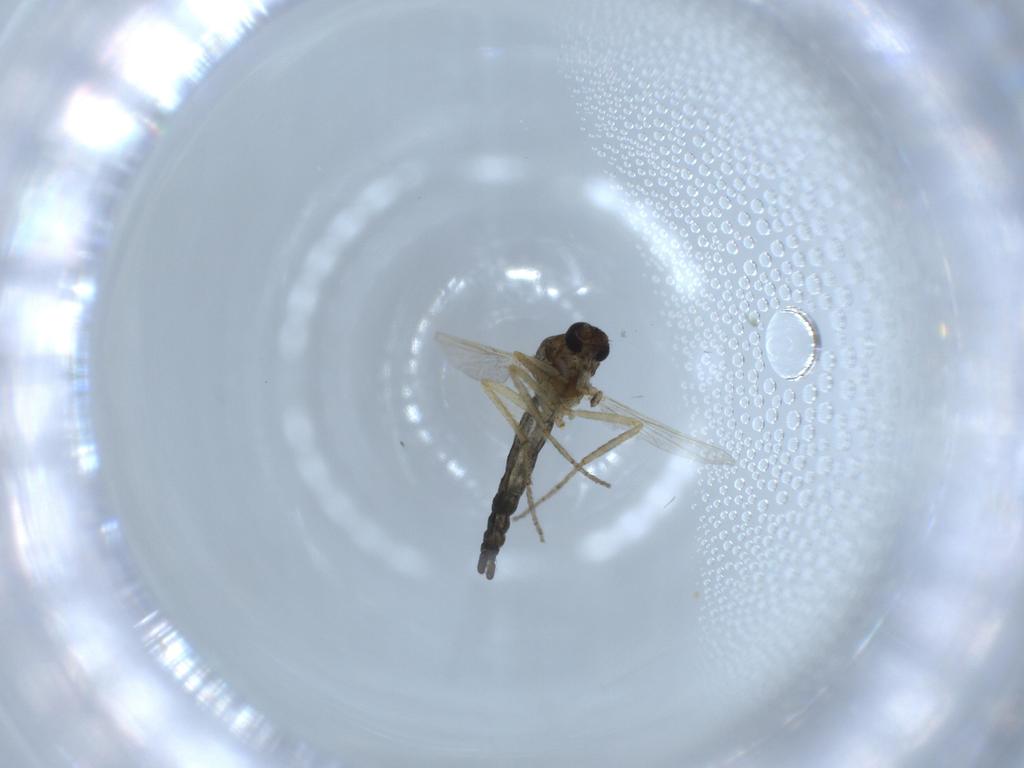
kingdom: Animalia
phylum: Arthropoda
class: Insecta
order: Diptera
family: Ceratopogonidae
